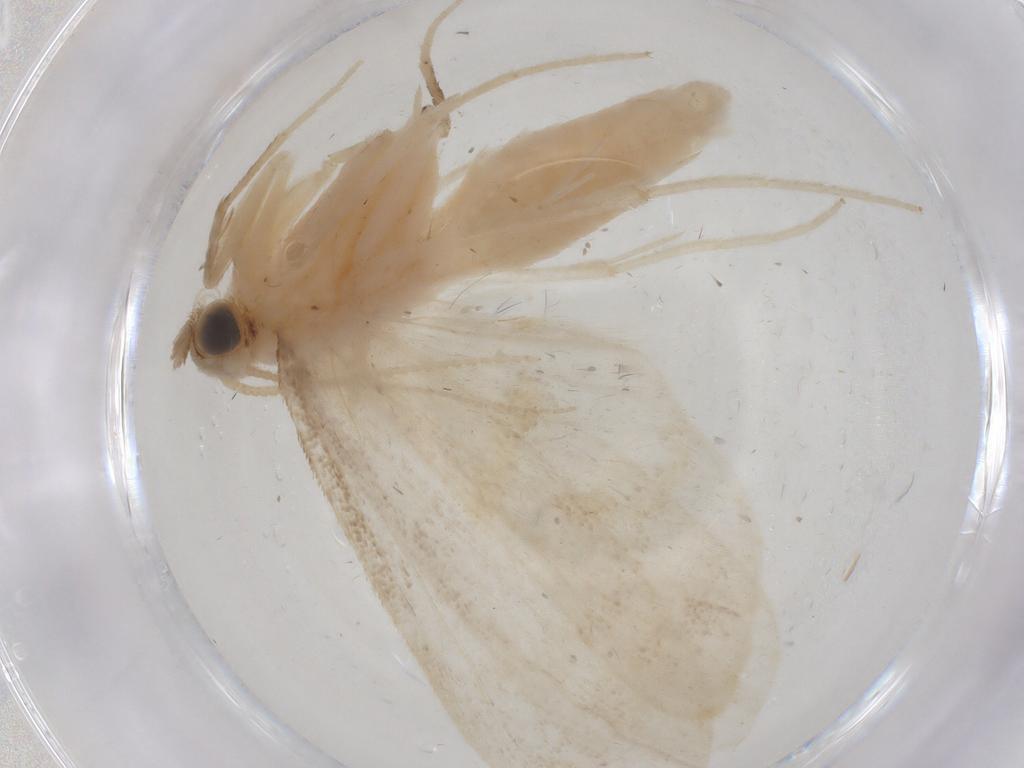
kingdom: Animalia
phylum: Arthropoda
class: Insecta
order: Lepidoptera
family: Crambidae
